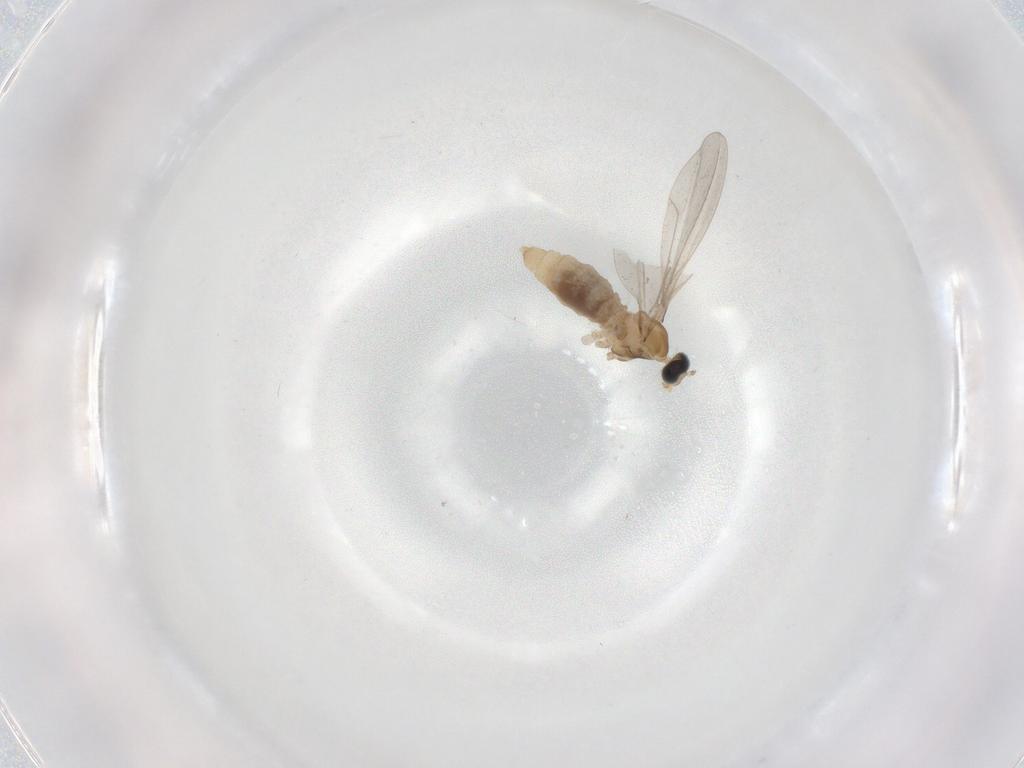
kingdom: Animalia
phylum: Arthropoda
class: Insecta
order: Diptera
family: Cecidomyiidae
